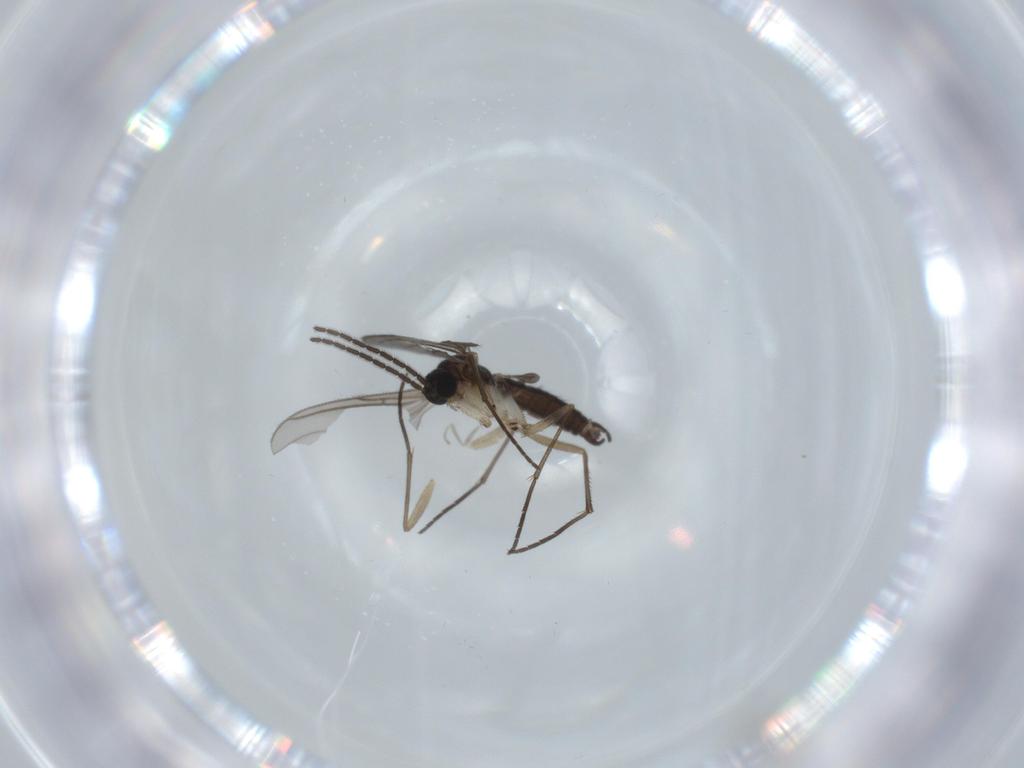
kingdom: Animalia
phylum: Arthropoda
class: Insecta
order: Diptera
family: Sciaridae
